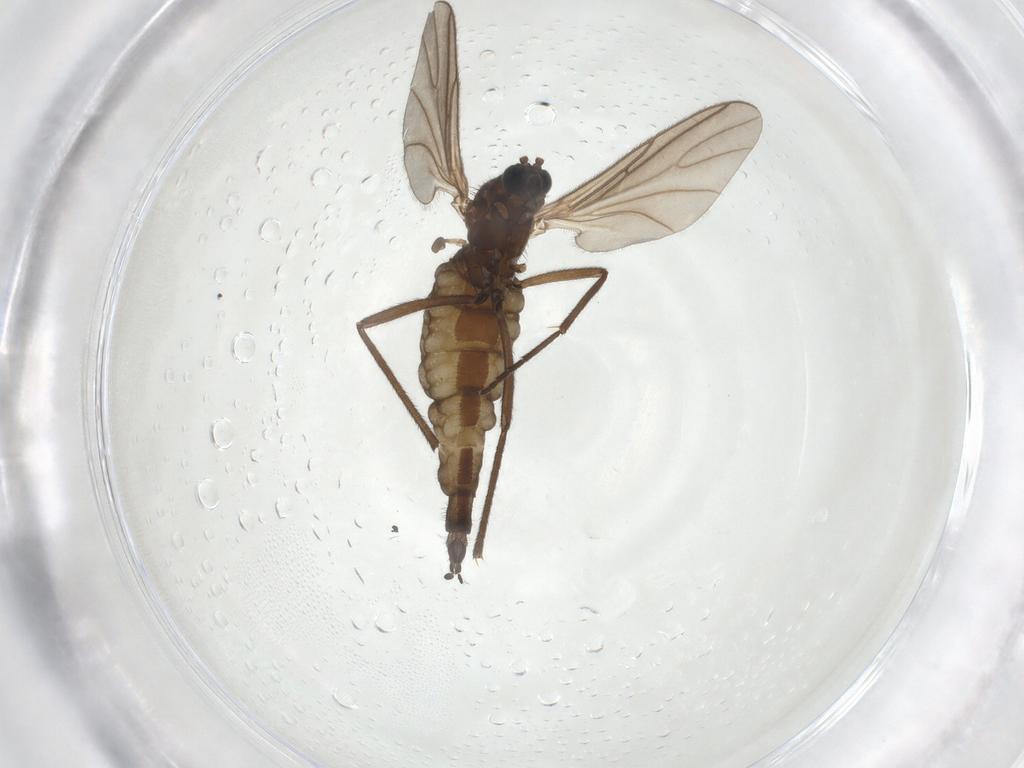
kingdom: Animalia
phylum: Arthropoda
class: Insecta
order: Diptera
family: Sciaridae
